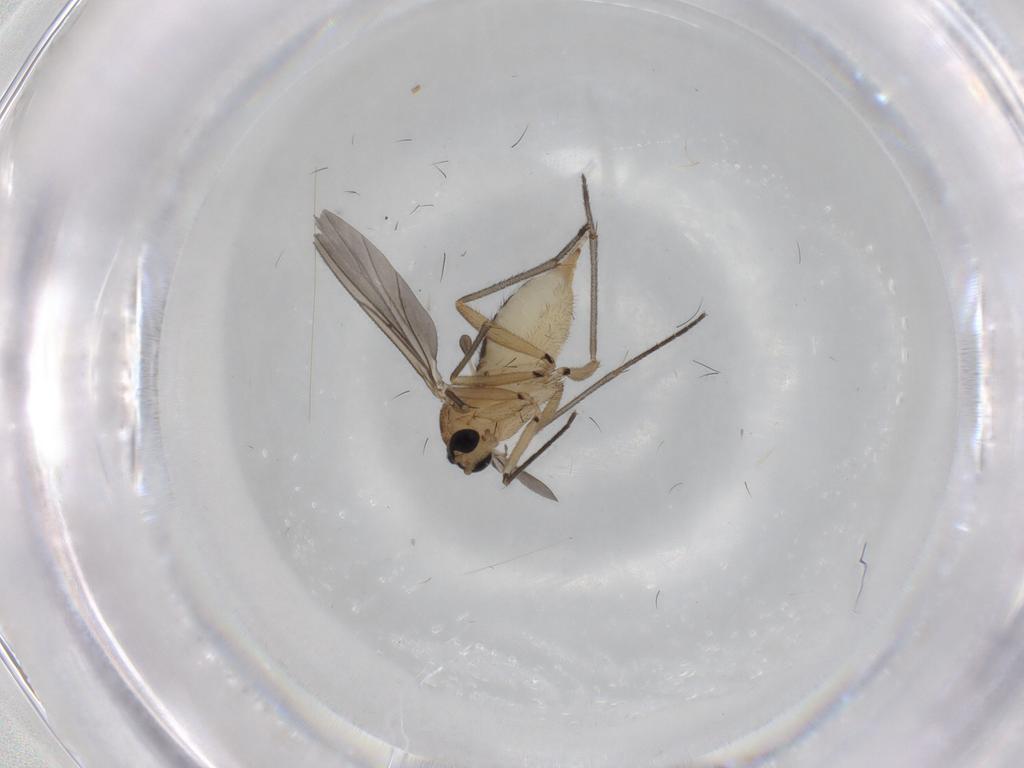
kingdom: Animalia
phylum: Arthropoda
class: Insecta
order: Diptera
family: Sciaridae
